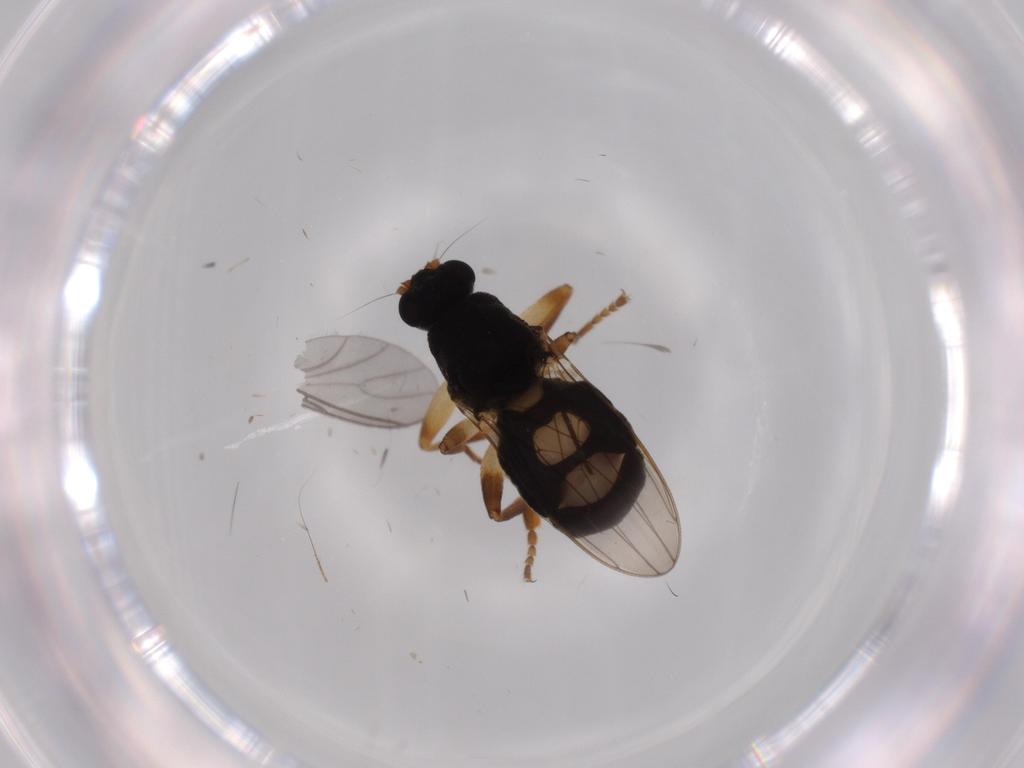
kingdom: Animalia
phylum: Arthropoda
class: Insecta
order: Diptera
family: Sphaeroceridae
